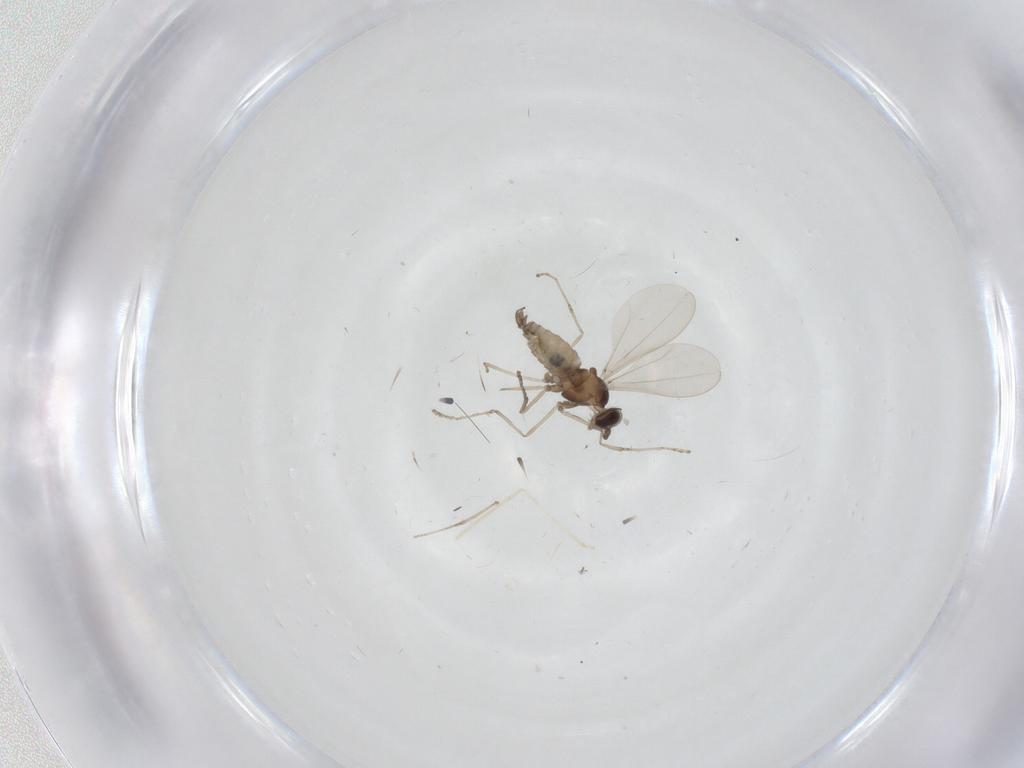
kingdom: Animalia
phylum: Arthropoda
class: Insecta
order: Diptera
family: Cecidomyiidae
